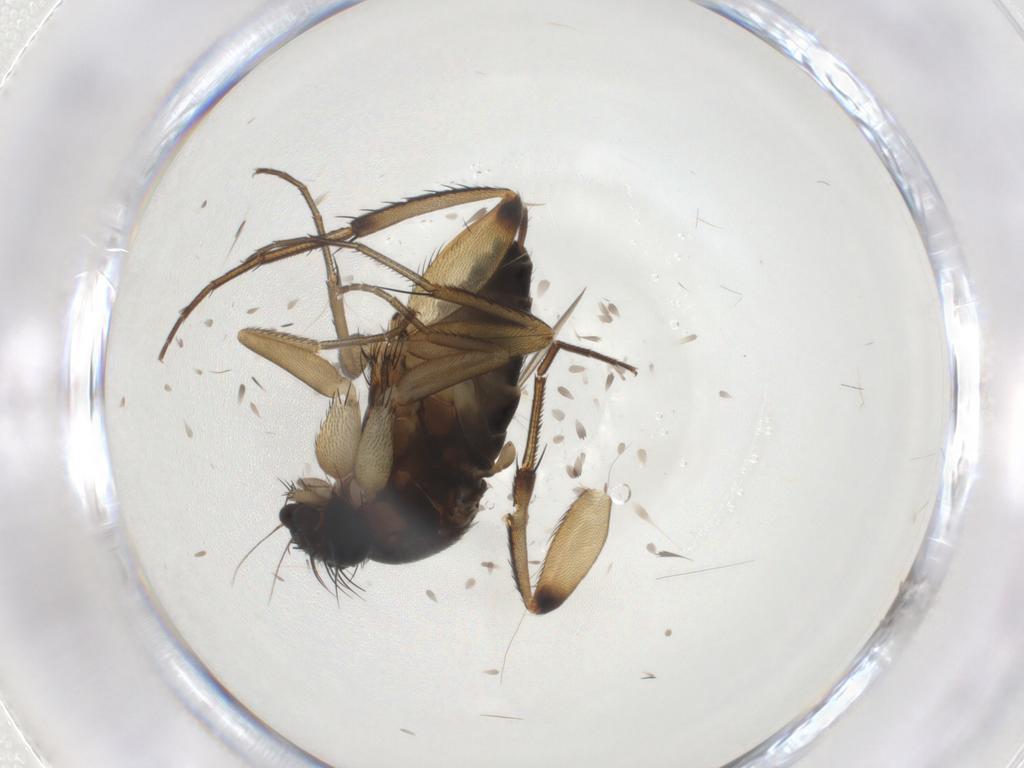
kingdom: Animalia
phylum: Arthropoda
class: Insecta
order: Diptera
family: Phoridae
